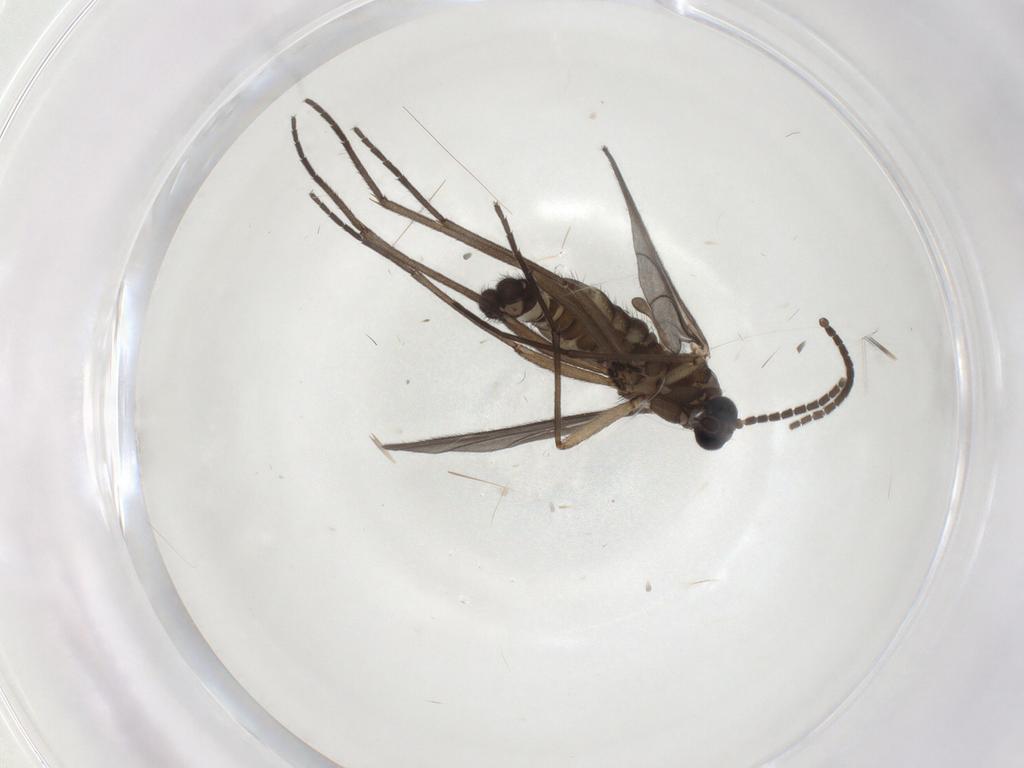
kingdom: Animalia
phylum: Arthropoda
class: Insecta
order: Diptera
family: Sciaridae
